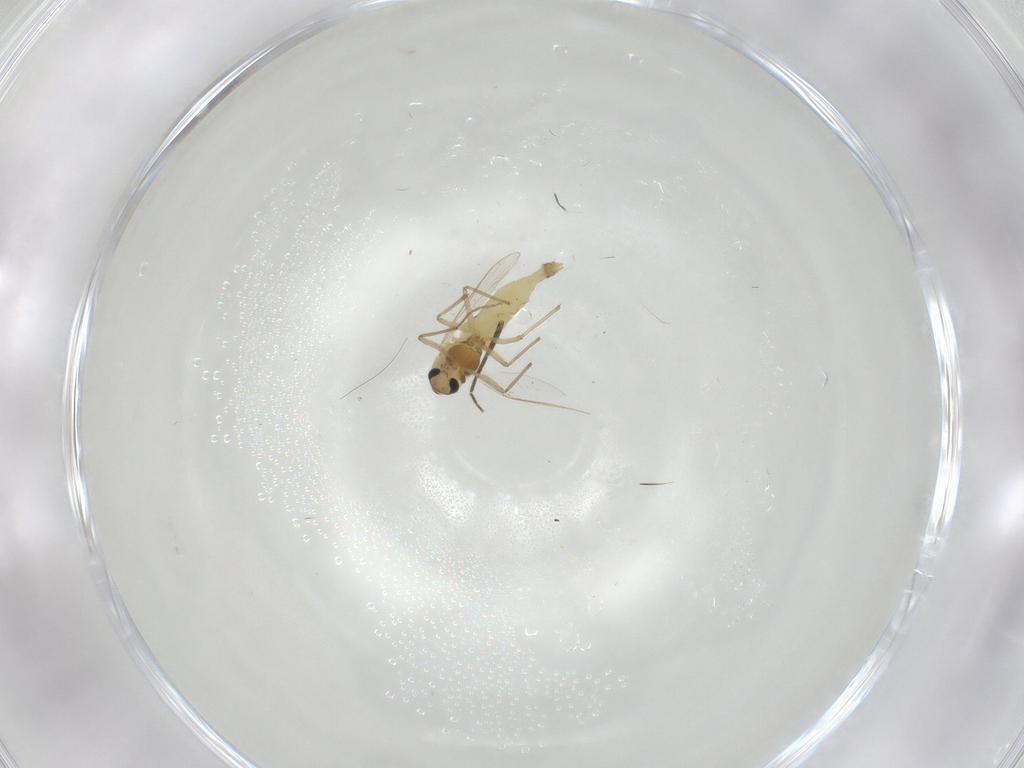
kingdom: Animalia
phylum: Arthropoda
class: Insecta
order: Diptera
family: Chironomidae
